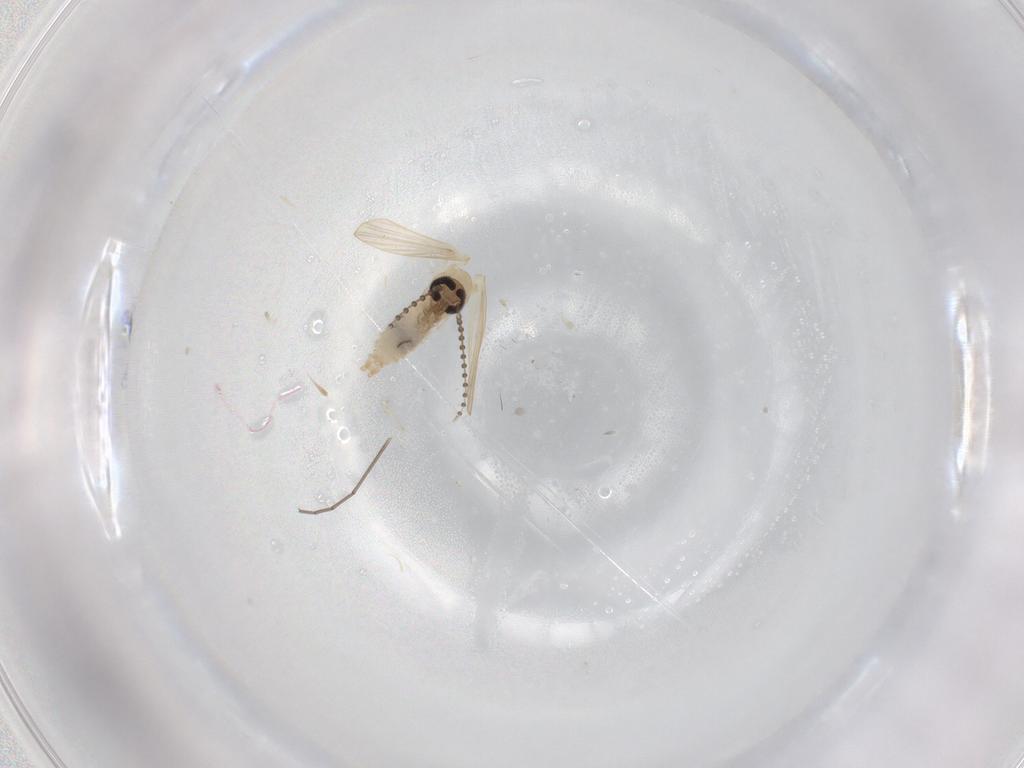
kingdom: Animalia
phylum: Arthropoda
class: Insecta
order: Diptera
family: Psychodidae
